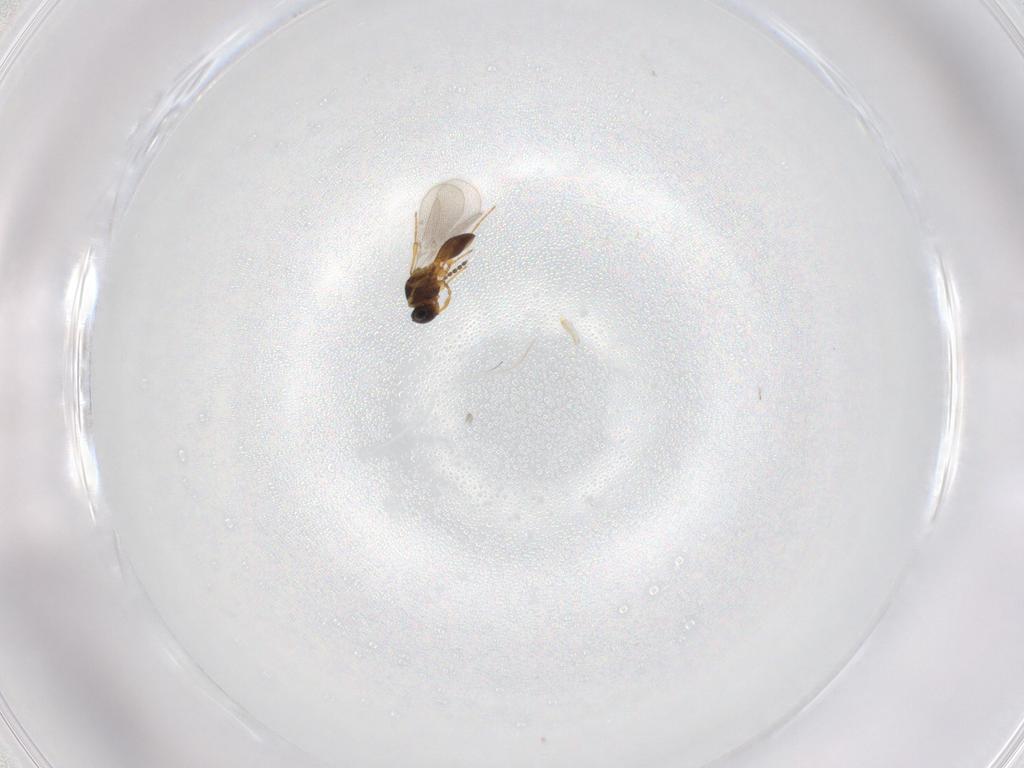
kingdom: Animalia
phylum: Arthropoda
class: Insecta
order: Hymenoptera
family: Platygastridae
